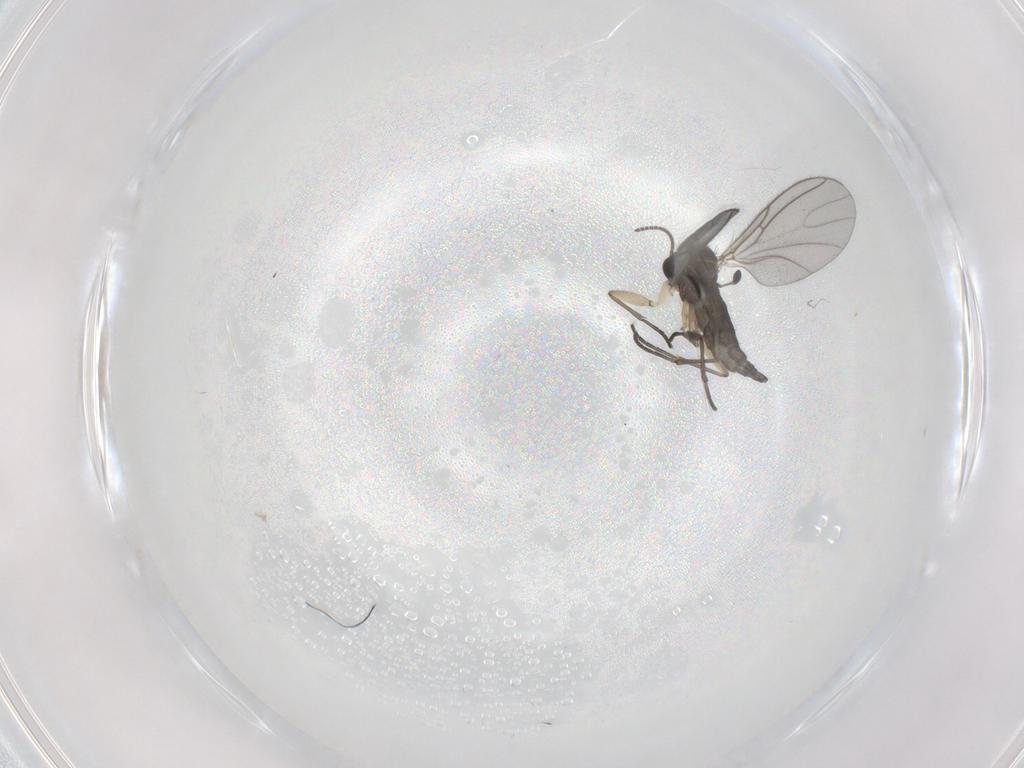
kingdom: Animalia
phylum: Arthropoda
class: Insecta
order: Diptera
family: Sciaridae
